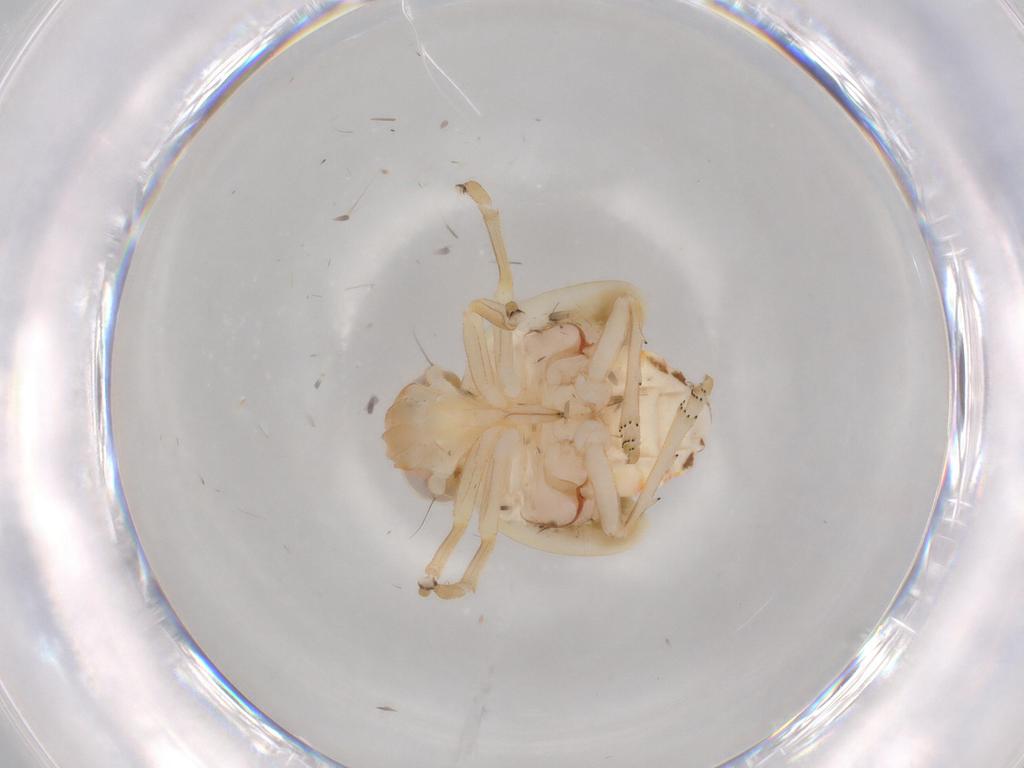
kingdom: Animalia
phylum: Arthropoda
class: Insecta
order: Hemiptera
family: Nogodinidae
